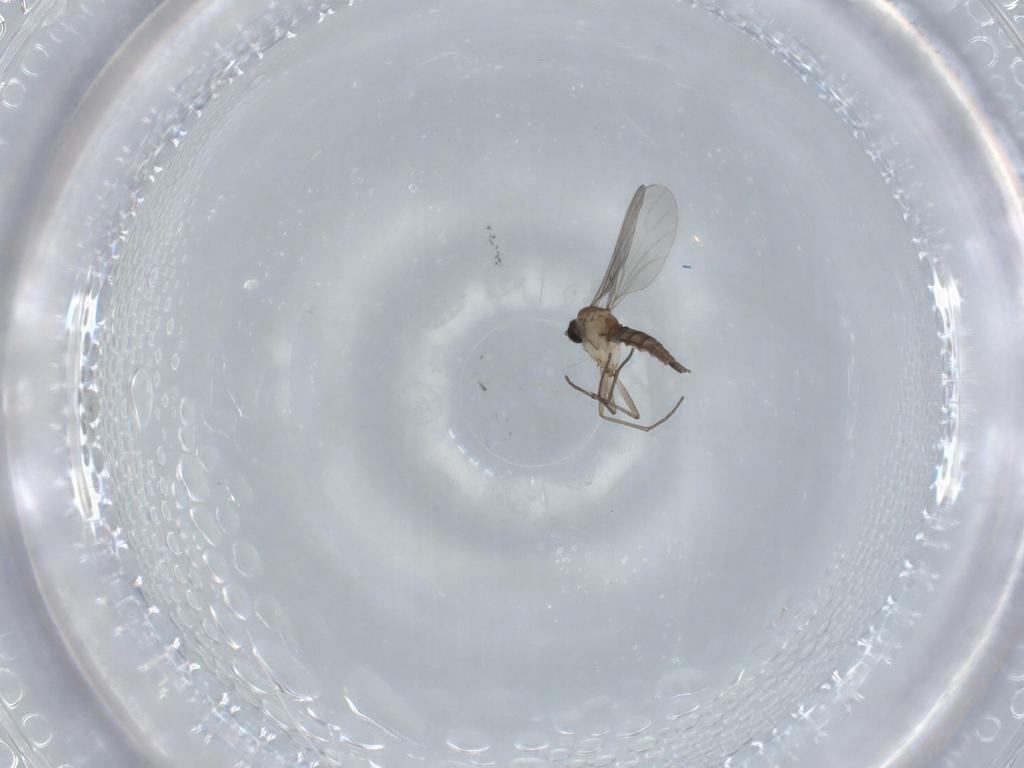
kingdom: Animalia
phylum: Arthropoda
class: Insecta
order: Diptera
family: Sciaridae
